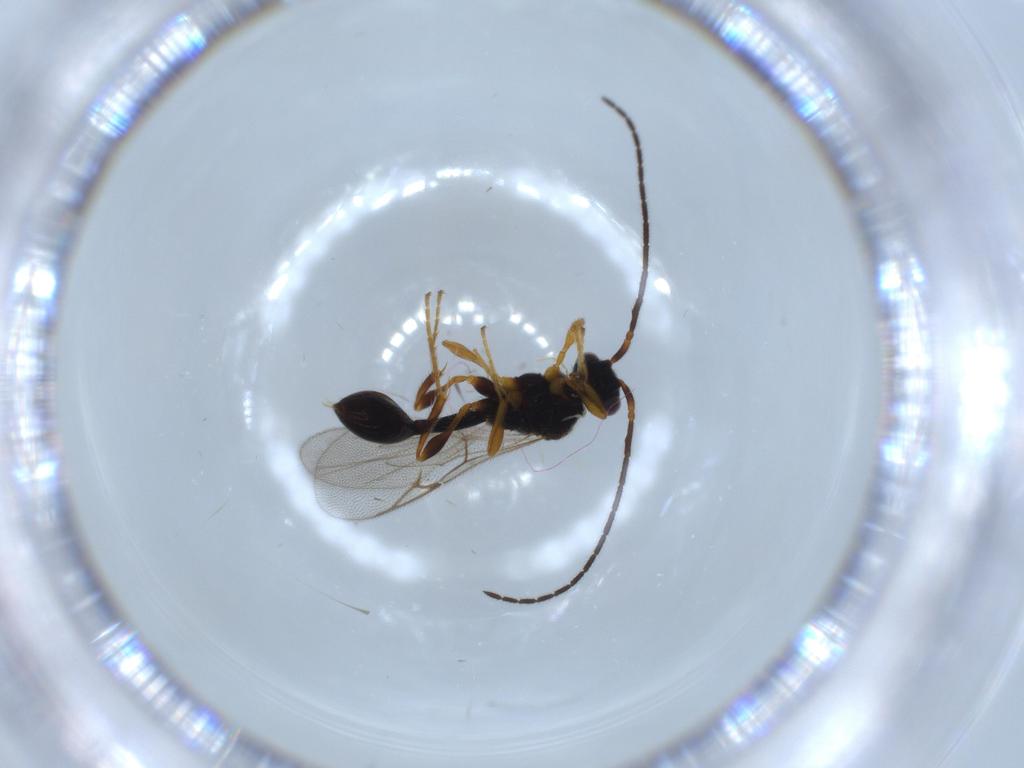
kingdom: Animalia
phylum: Arthropoda
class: Insecta
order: Hymenoptera
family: Diapriidae
